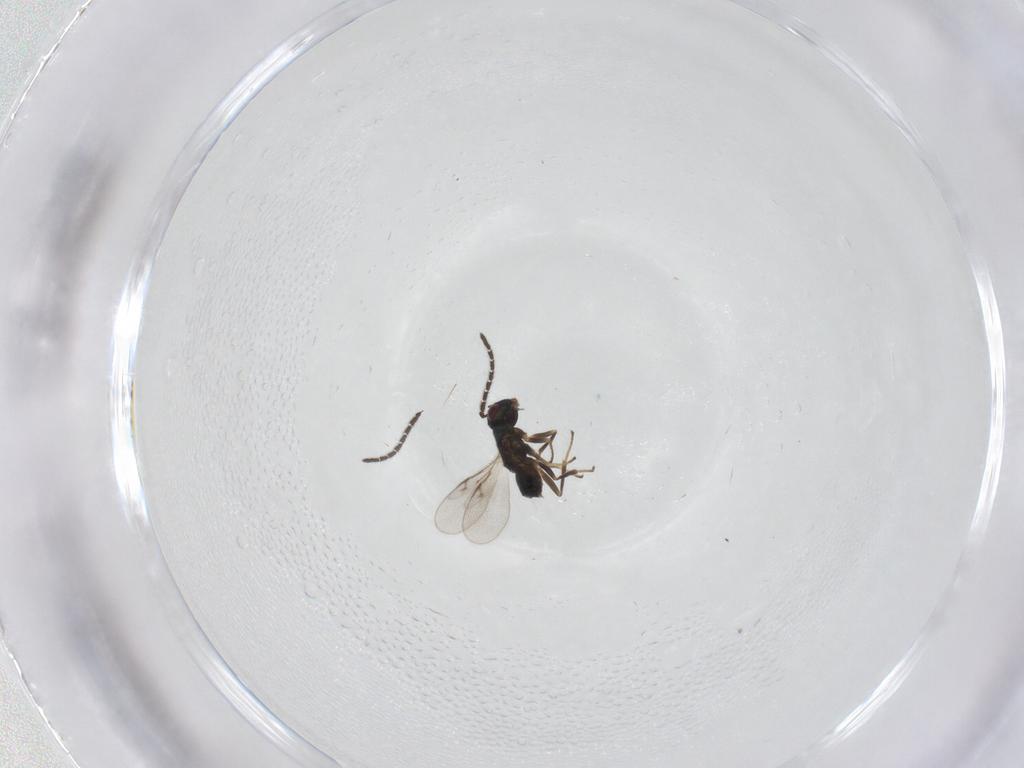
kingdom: Animalia
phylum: Arthropoda
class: Insecta
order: Hymenoptera
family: Encyrtidae
